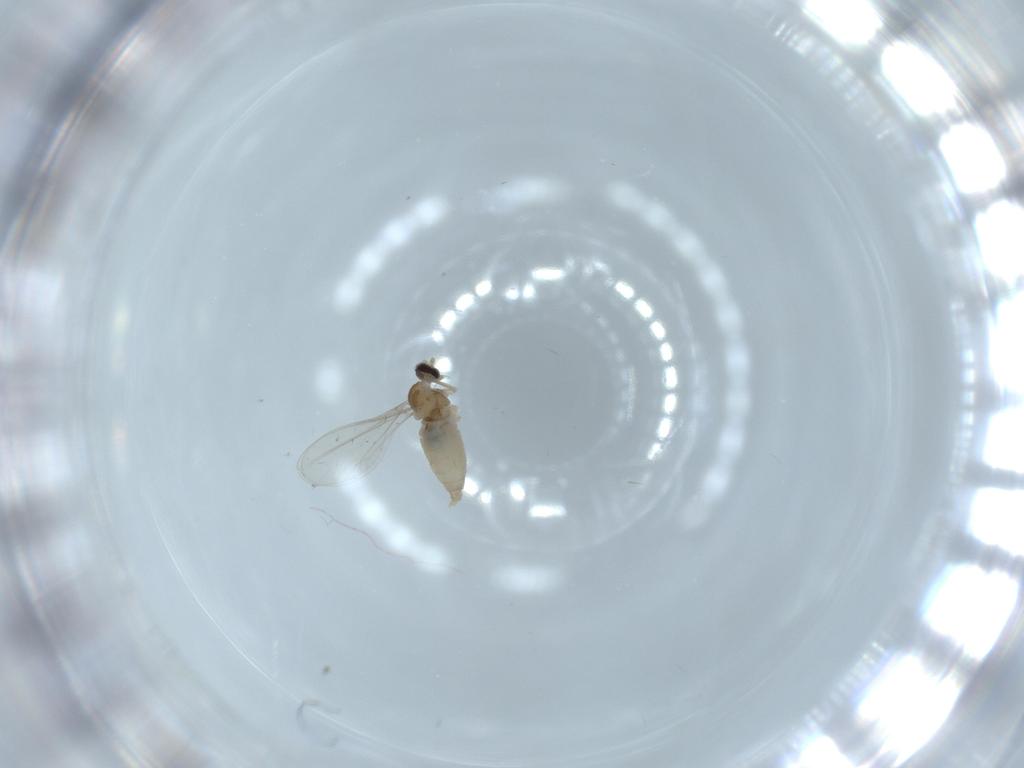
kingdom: Animalia
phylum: Arthropoda
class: Insecta
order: Diptera
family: Cecidomyiidae
